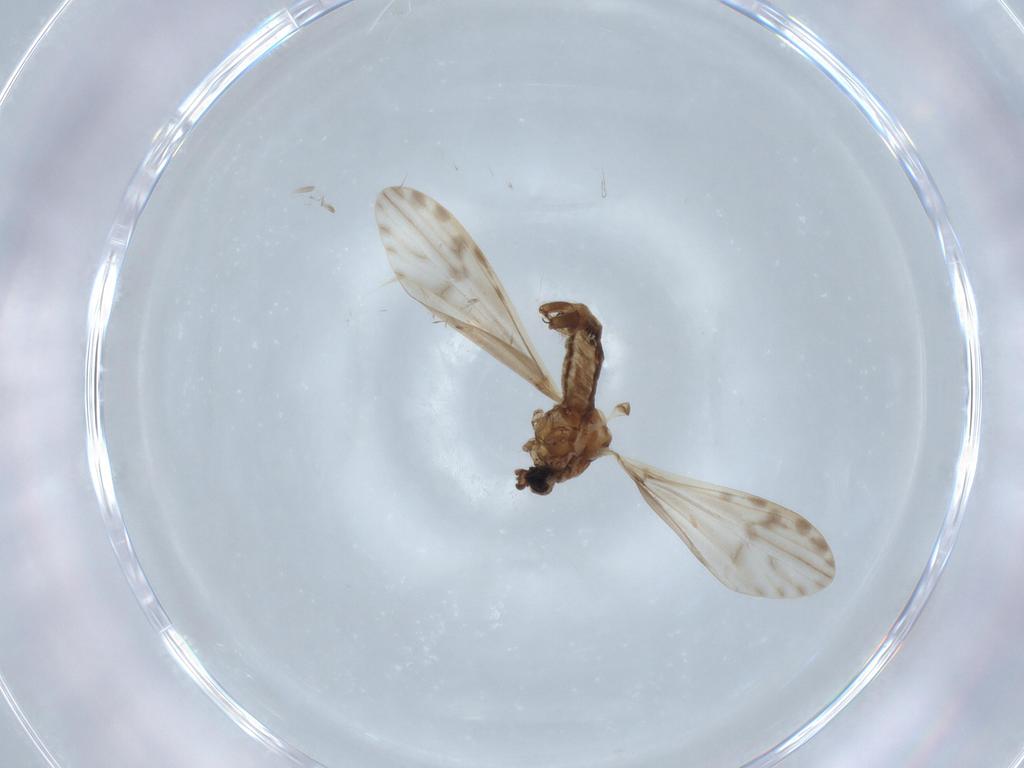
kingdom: Animalia
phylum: Arthropoda
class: Insecta
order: Diptera
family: Limoniidae
